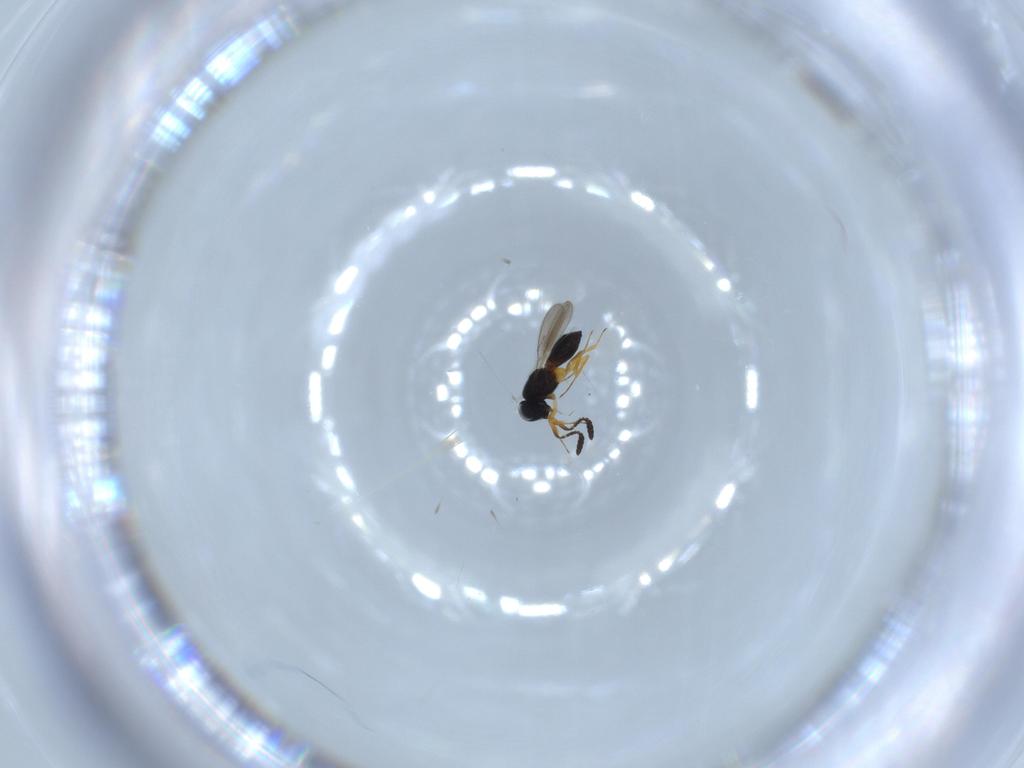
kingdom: Animalia
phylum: Arthropoda
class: Insecta
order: Hymenoptera
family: Scelionidae
